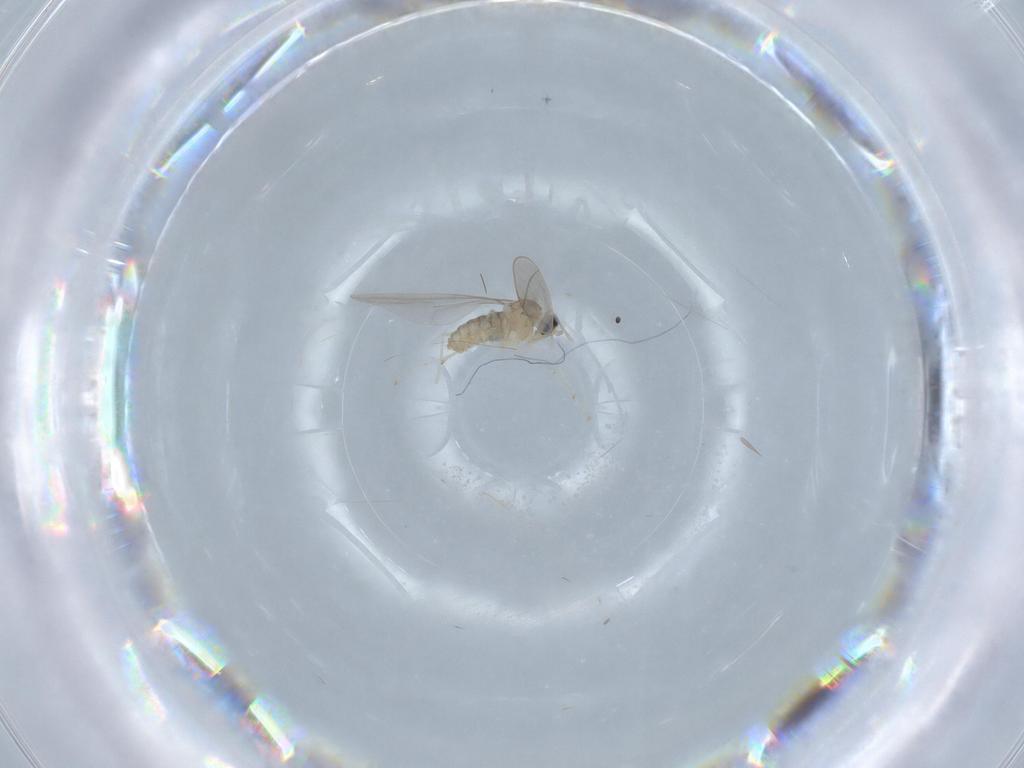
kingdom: Animalia
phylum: Arthropoda
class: Insecta
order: Diptera
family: Cecidomyiidae
